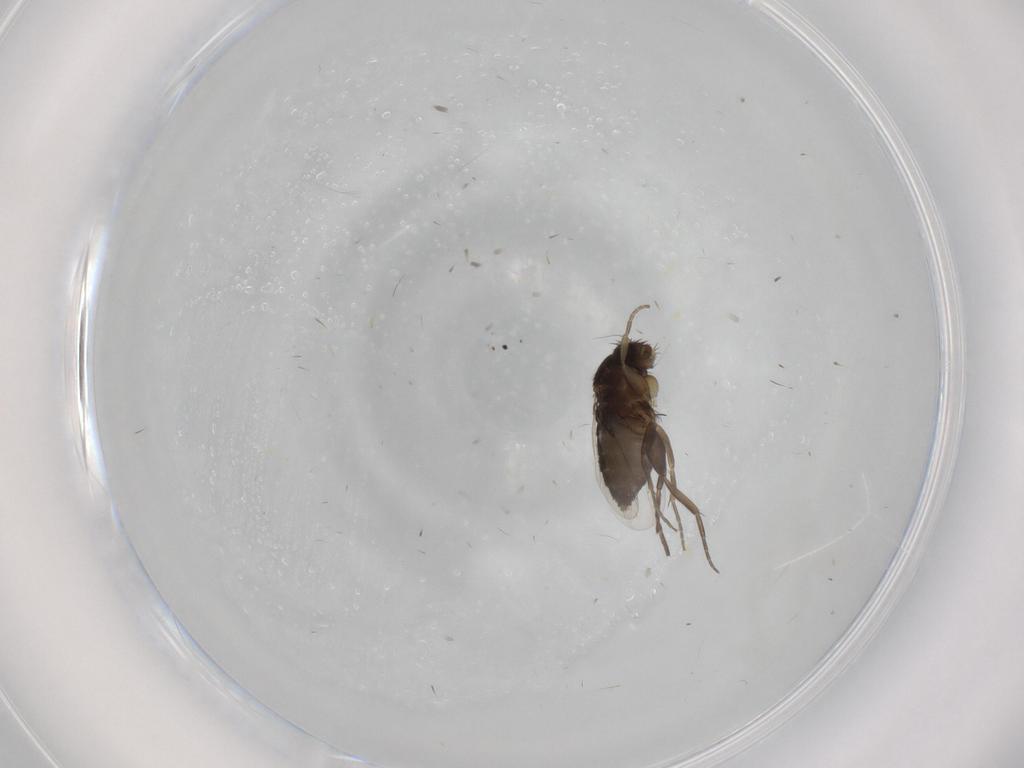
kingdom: Animalia
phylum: Arthropoda
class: Insecta
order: Diptera
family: Phoridae
